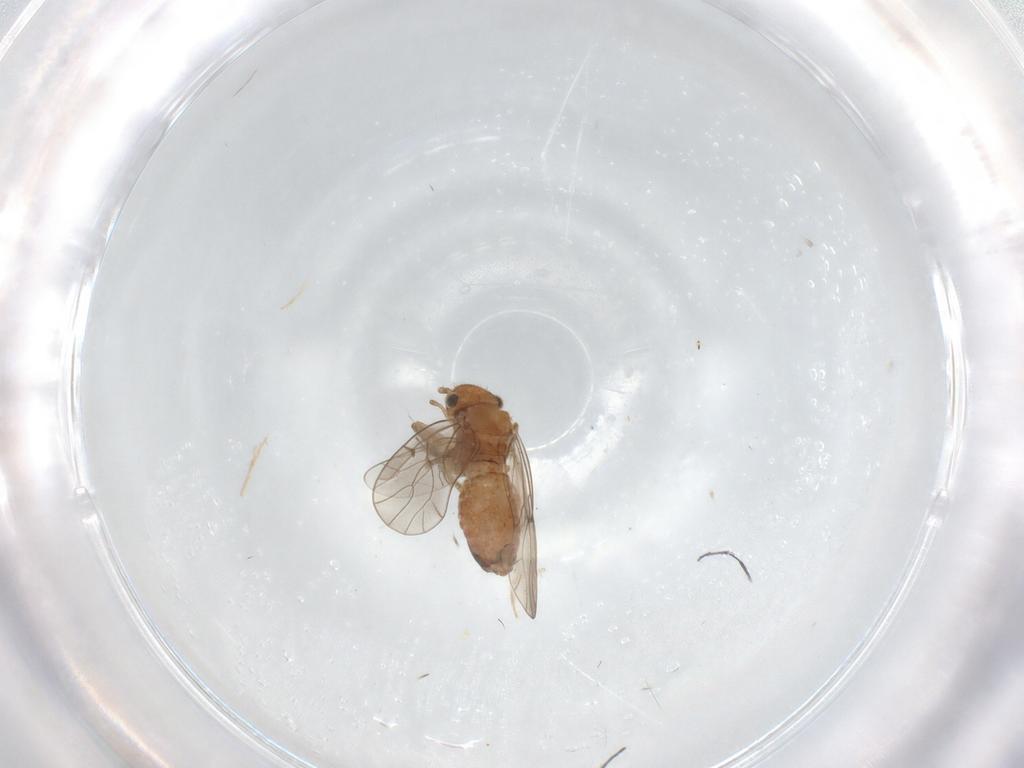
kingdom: Animalia
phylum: Arthropoda
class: Insecta
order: Psocodea
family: Ectopsocidae
